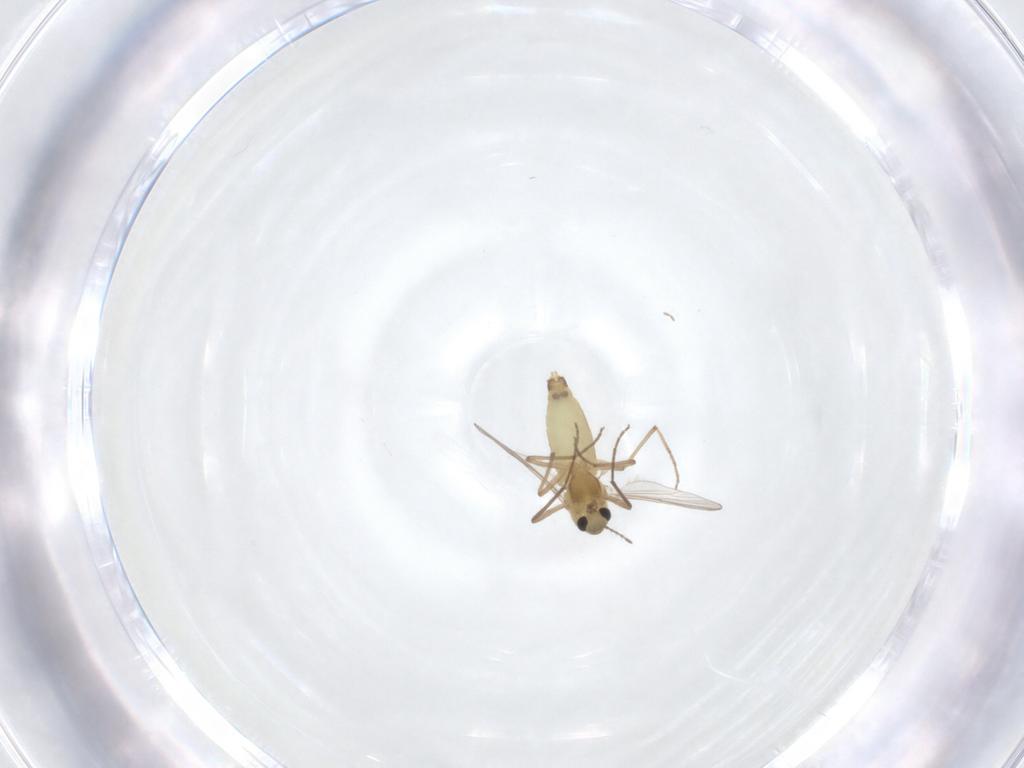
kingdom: Animalia
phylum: Arthropoda
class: Insecta
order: Diptera
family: Chironomidae
